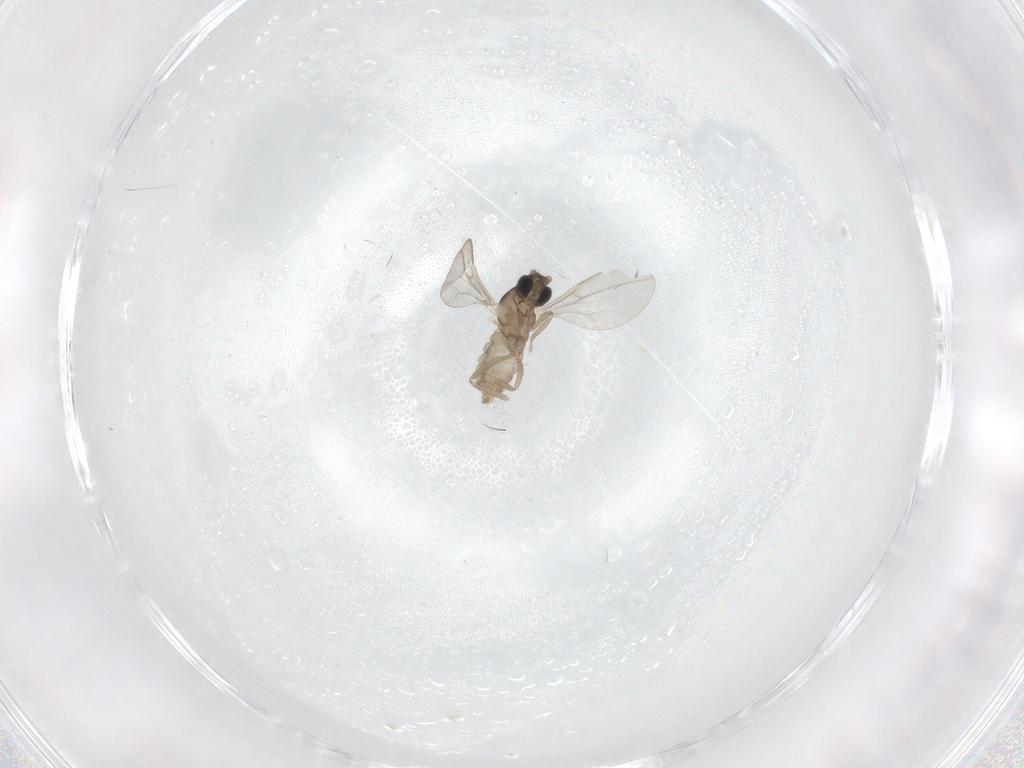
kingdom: Animalia
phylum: Arthropoda
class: Insecta
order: Diptera
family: Cecidomyiidae
